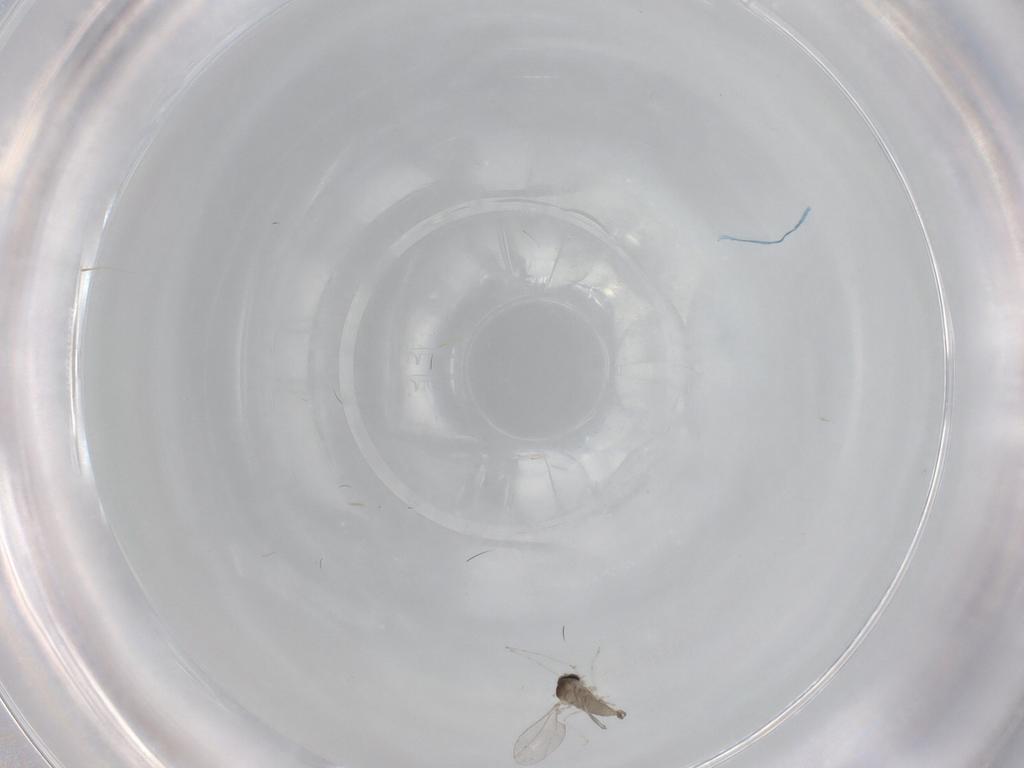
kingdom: Animalia
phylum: Arthropoda
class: Insecta
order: Diptera
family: Cecidomyiidae
